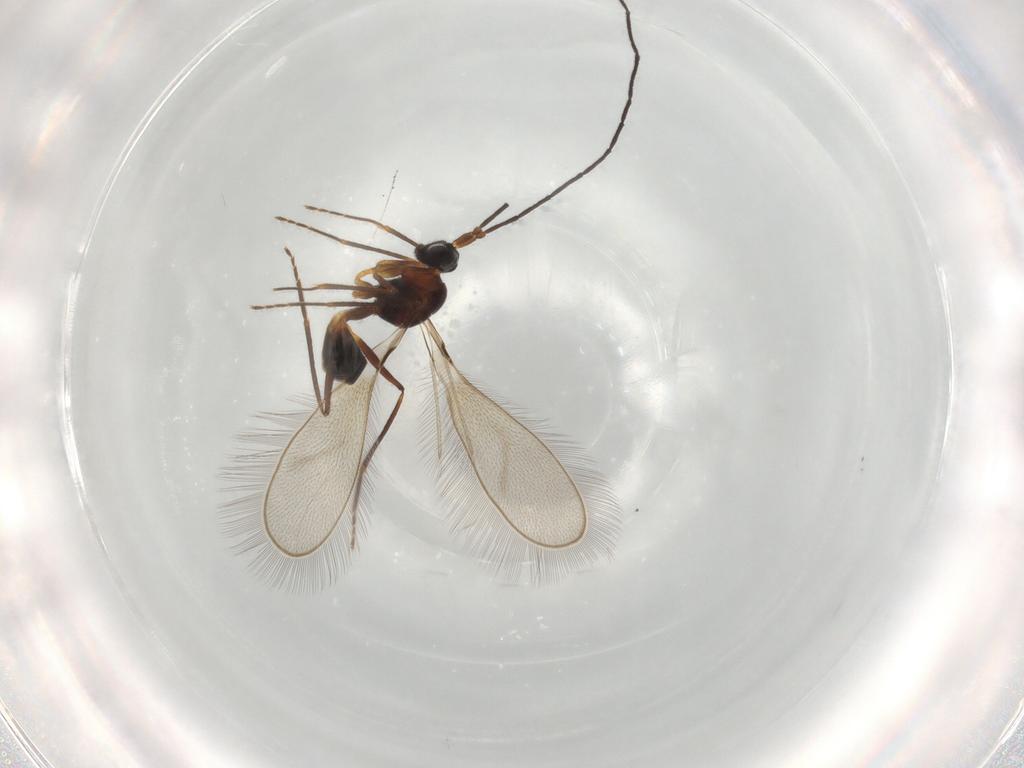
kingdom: Animalia
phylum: Arthropoda
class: Insecta
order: Hymenoptera
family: Mymaridae
